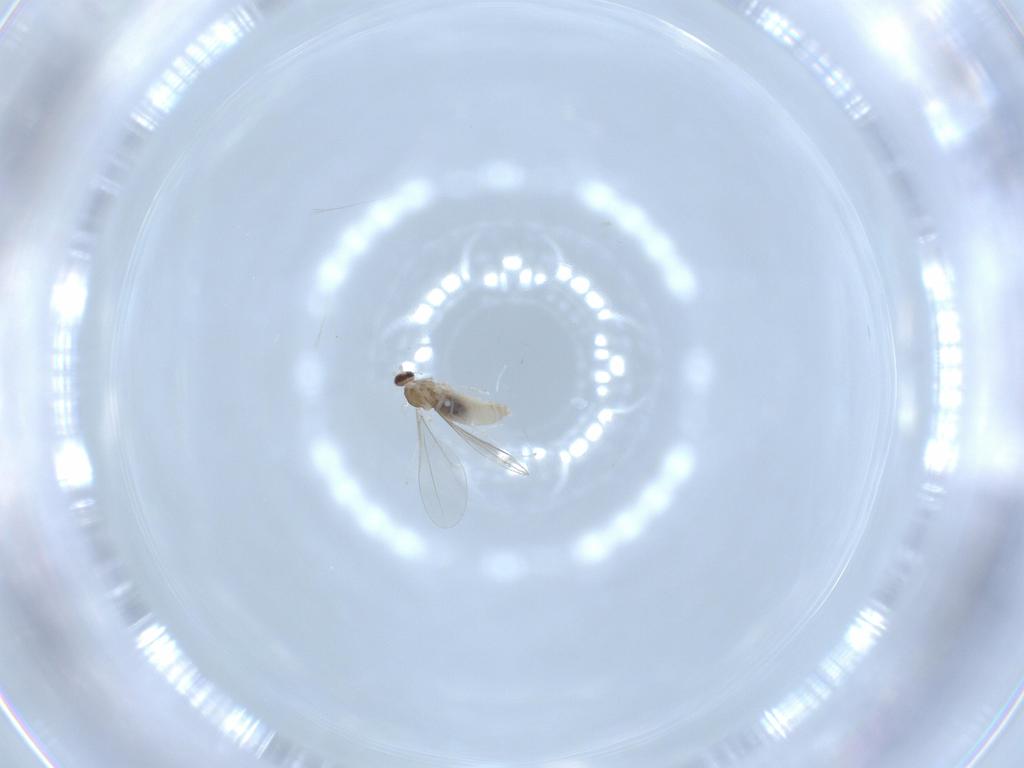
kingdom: Animalia
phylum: Arthropoda
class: Insecta
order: Diptera
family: Cecidomyiidae
